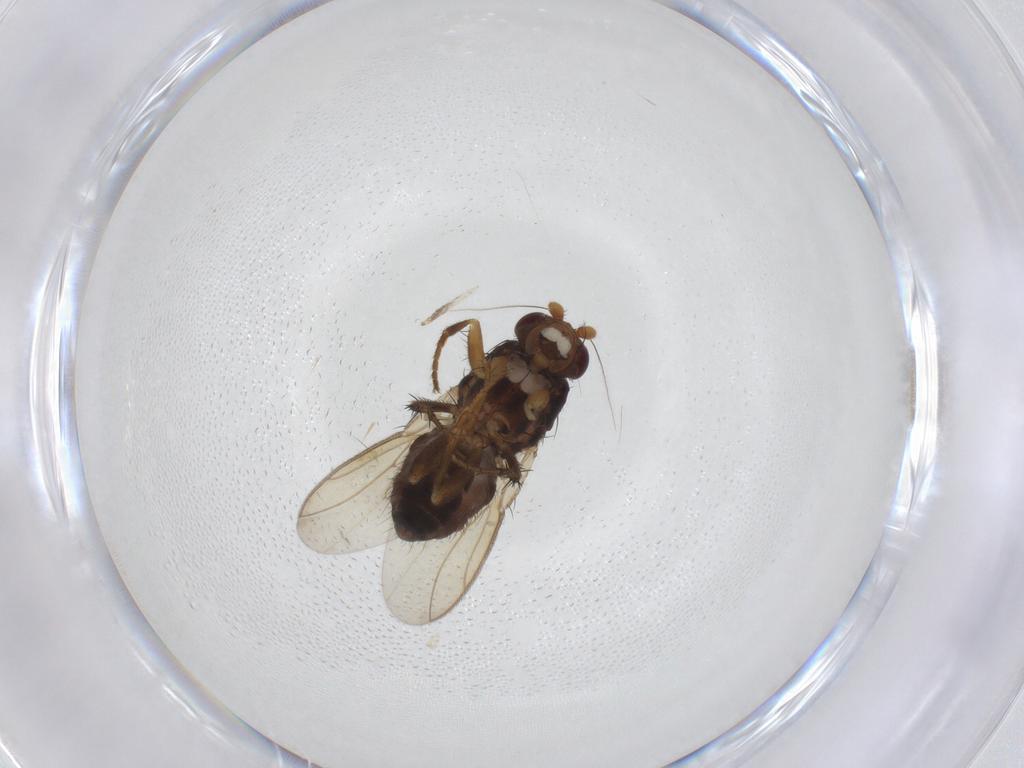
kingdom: Animalia
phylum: Arthropoda
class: Insecta
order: Diptera
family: Sphaeroceridae
